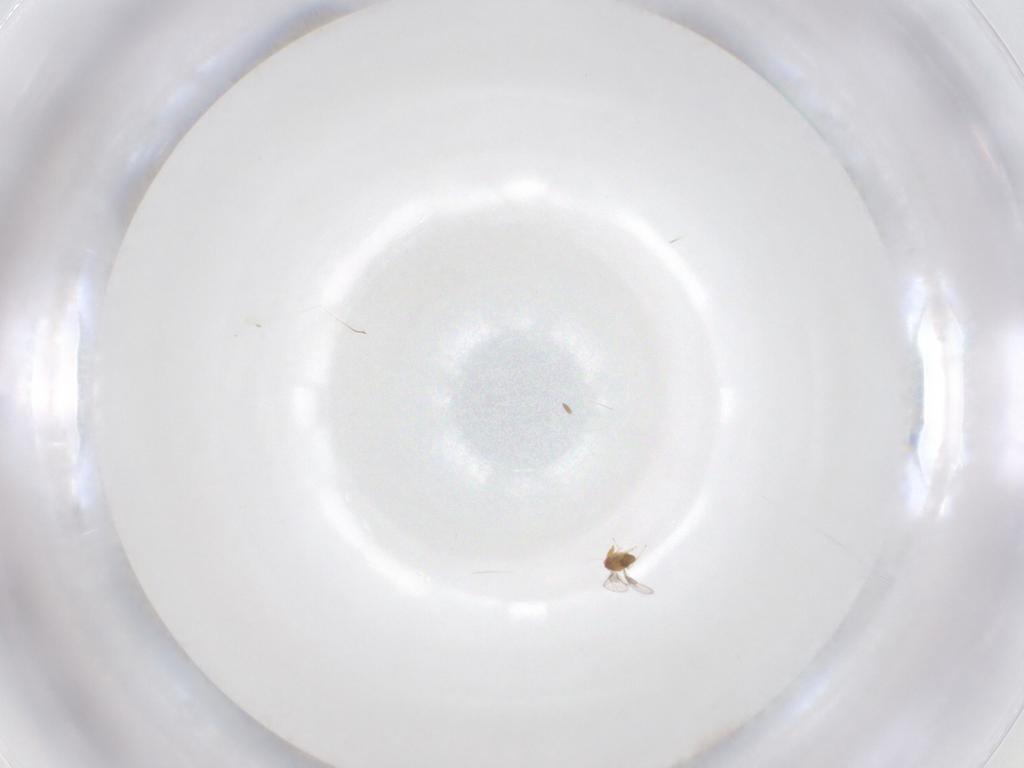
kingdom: Animalia
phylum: Arthropoda
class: Insecta
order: Hymenoptera
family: Trichogrammatidae
